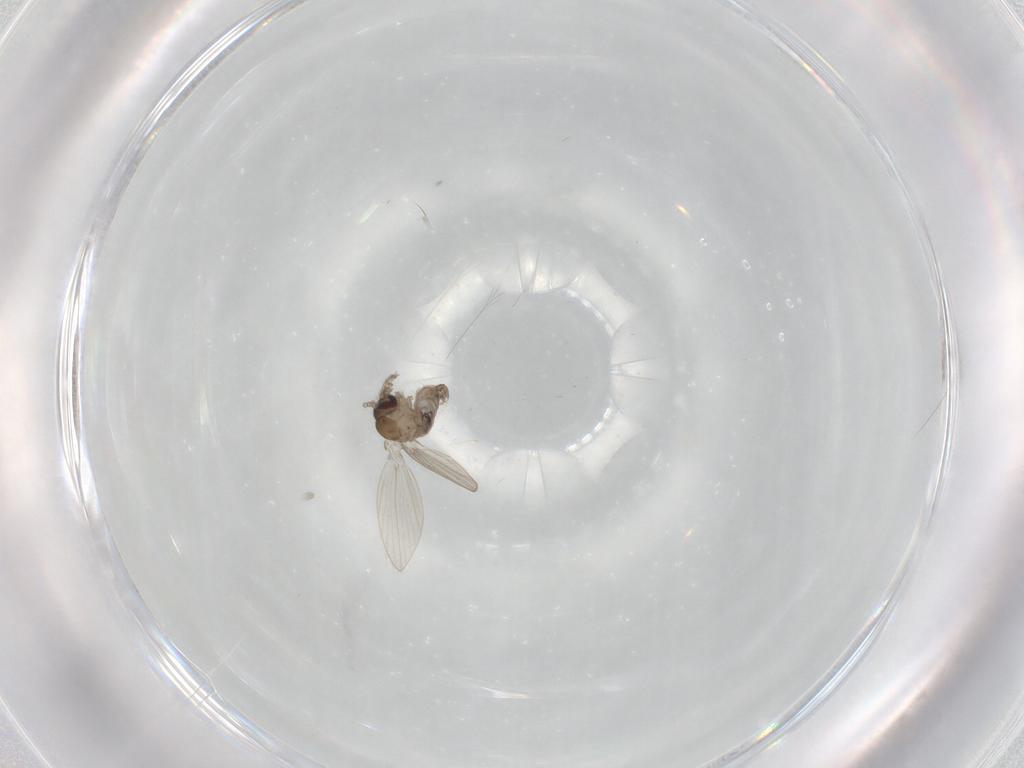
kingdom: Animalia
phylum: Arthropoda
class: Insecta
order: Diptera
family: Psychodidae
